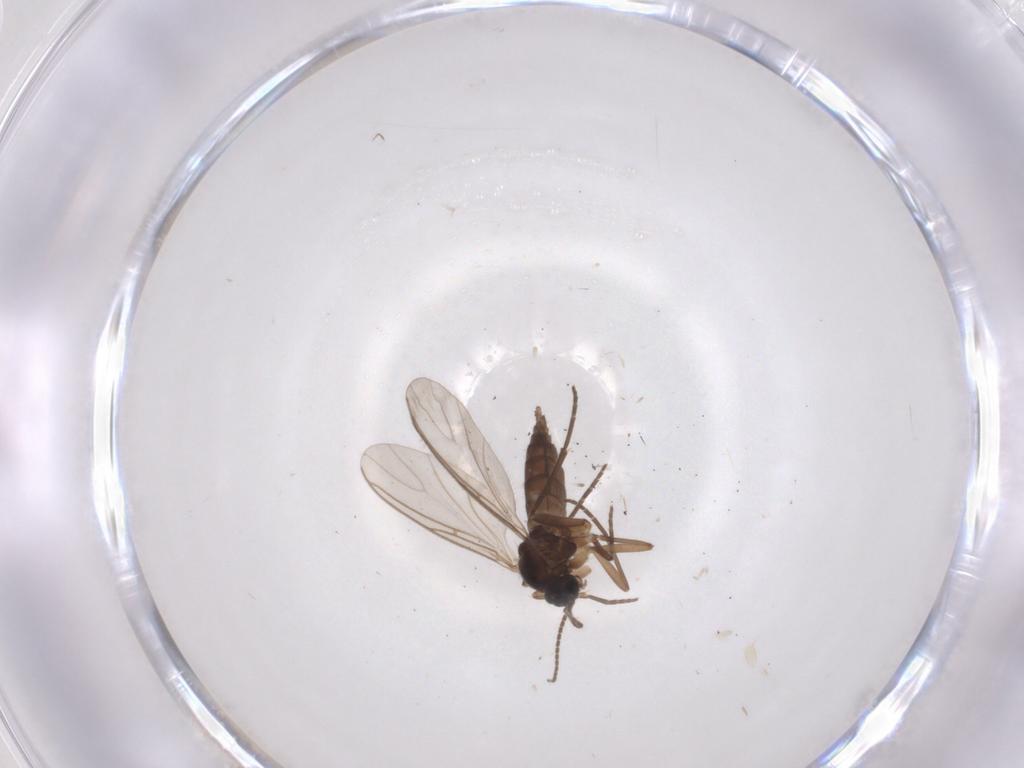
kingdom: Animalia
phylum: Arthropoda
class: Insecta
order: Diptera
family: Sciaridae
